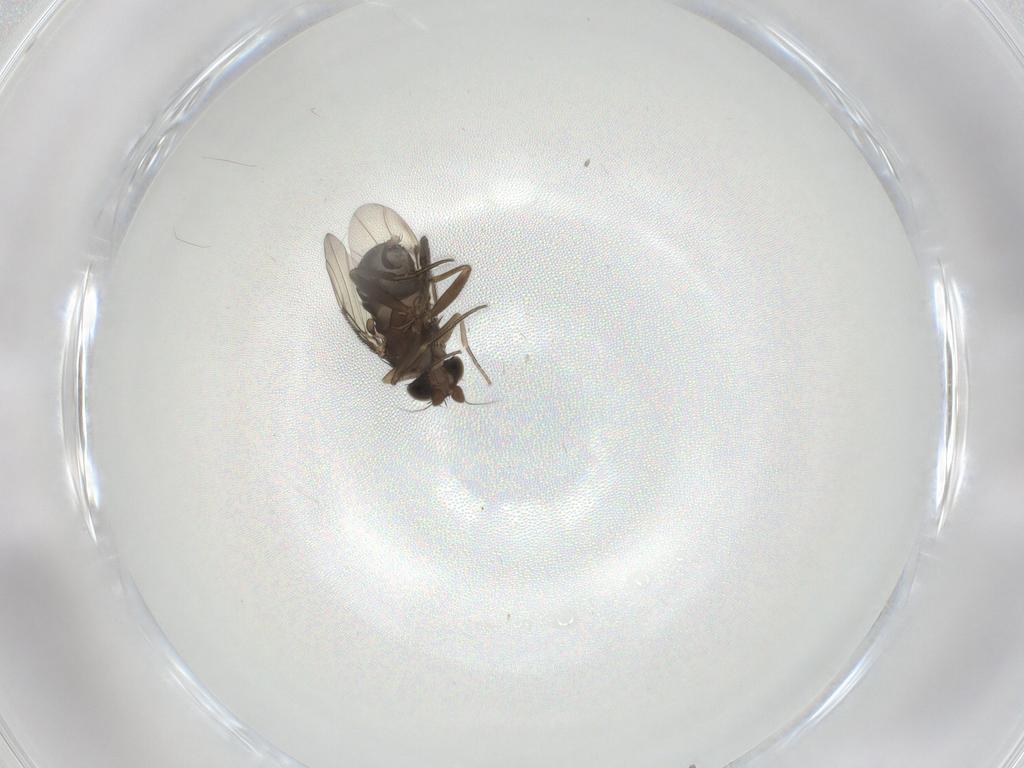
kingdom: Animalia
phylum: Arthropoda
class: Insecta
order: Diptera
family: Phoridae
